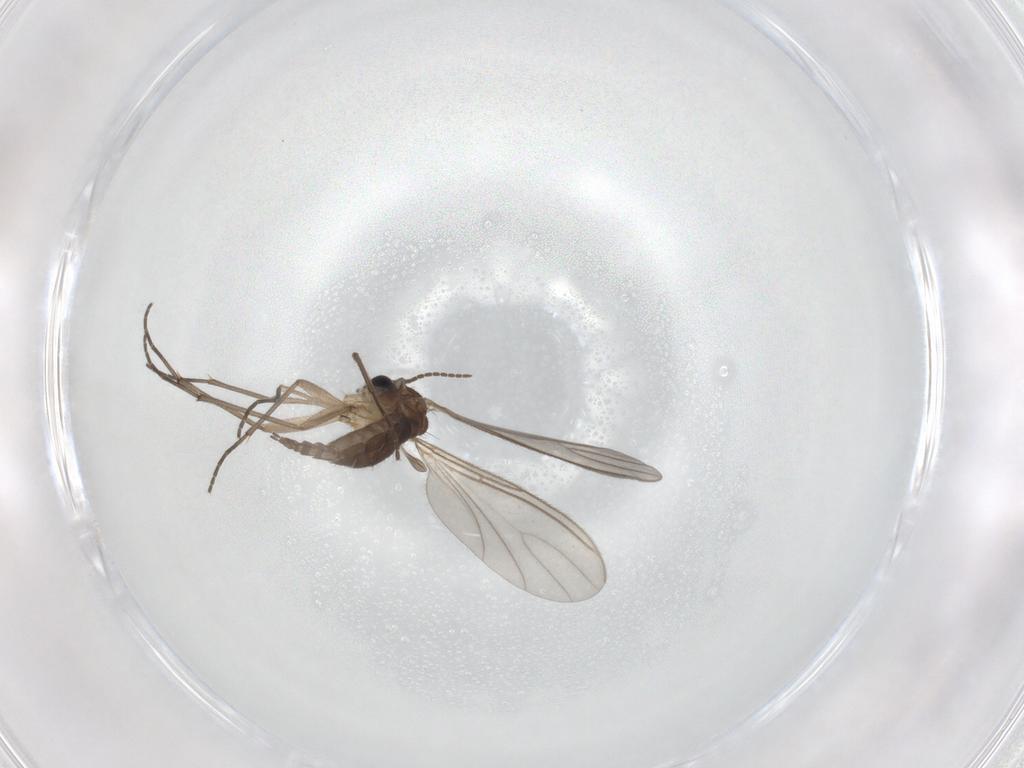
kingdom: Animalia
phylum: Arthropoda
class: Insecta
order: Diptera
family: Sciaridae
